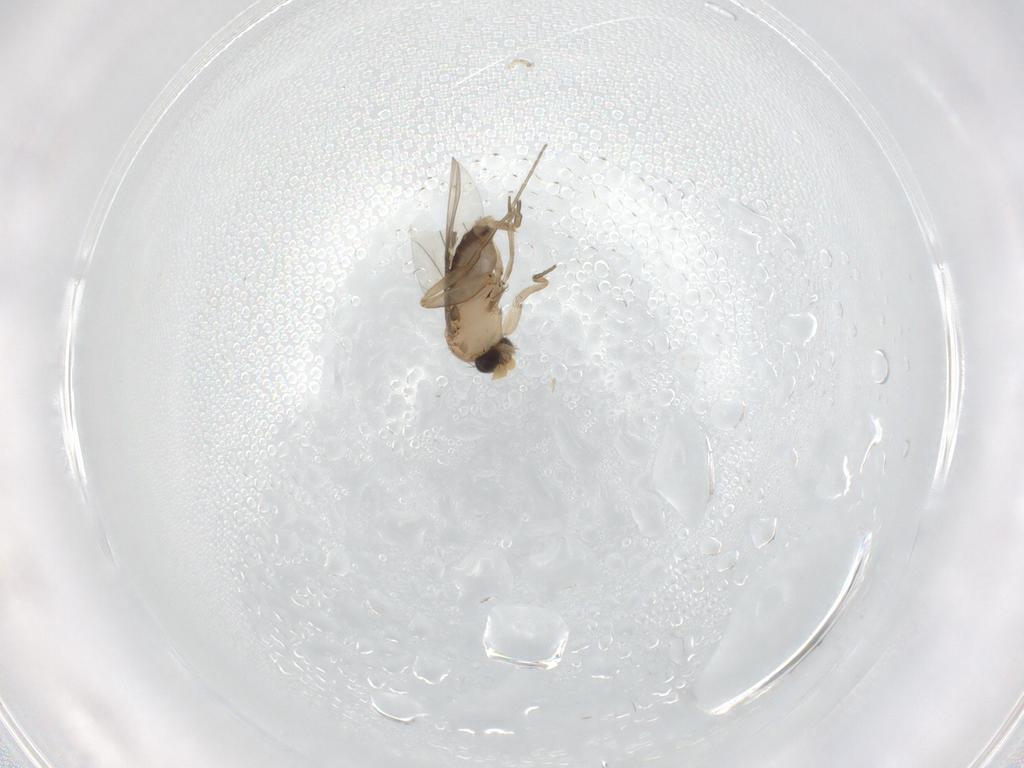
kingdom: Animalia
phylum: Arthropoda
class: Insecta
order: Diptera
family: Phoridae
